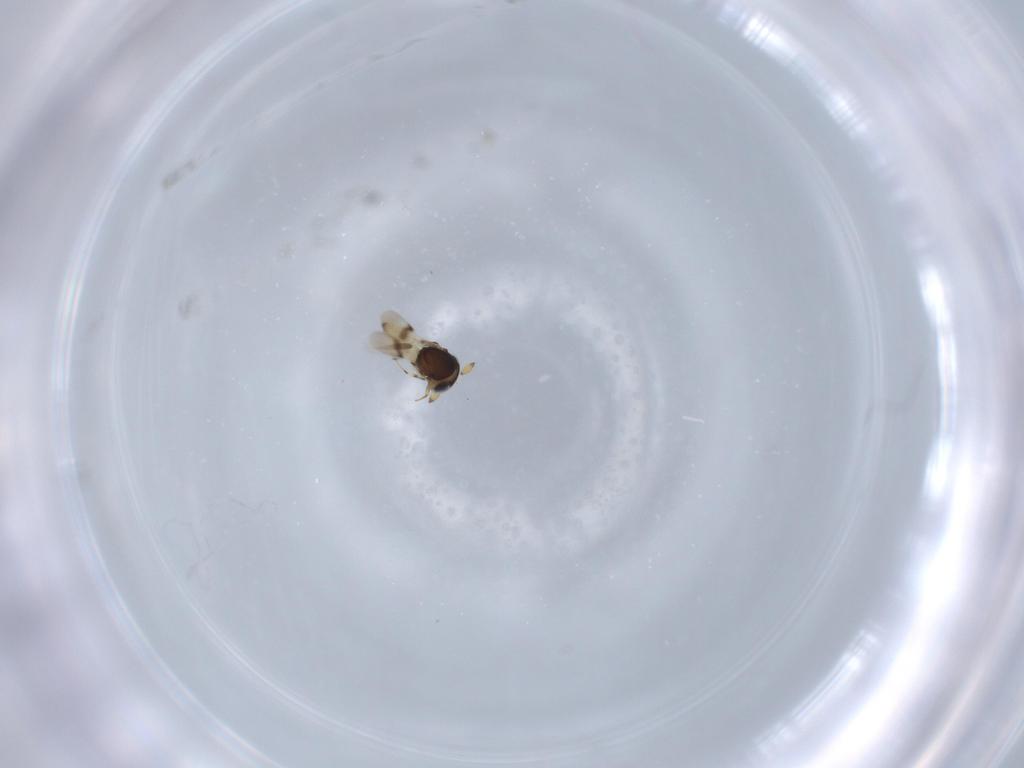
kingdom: Animalia
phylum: Arthropoda
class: Insecta
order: Hymenoptera
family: Scelionidae
